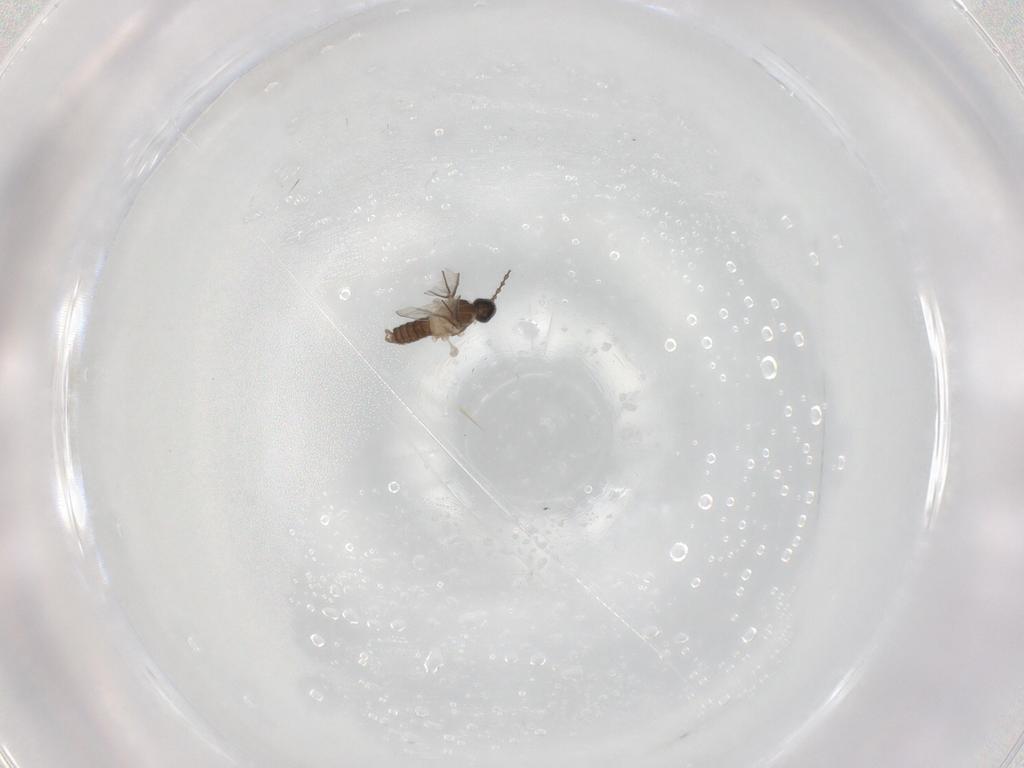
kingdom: Animalia
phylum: Arthropoda
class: Insecta
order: Diptera
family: Cecidomyiidae
